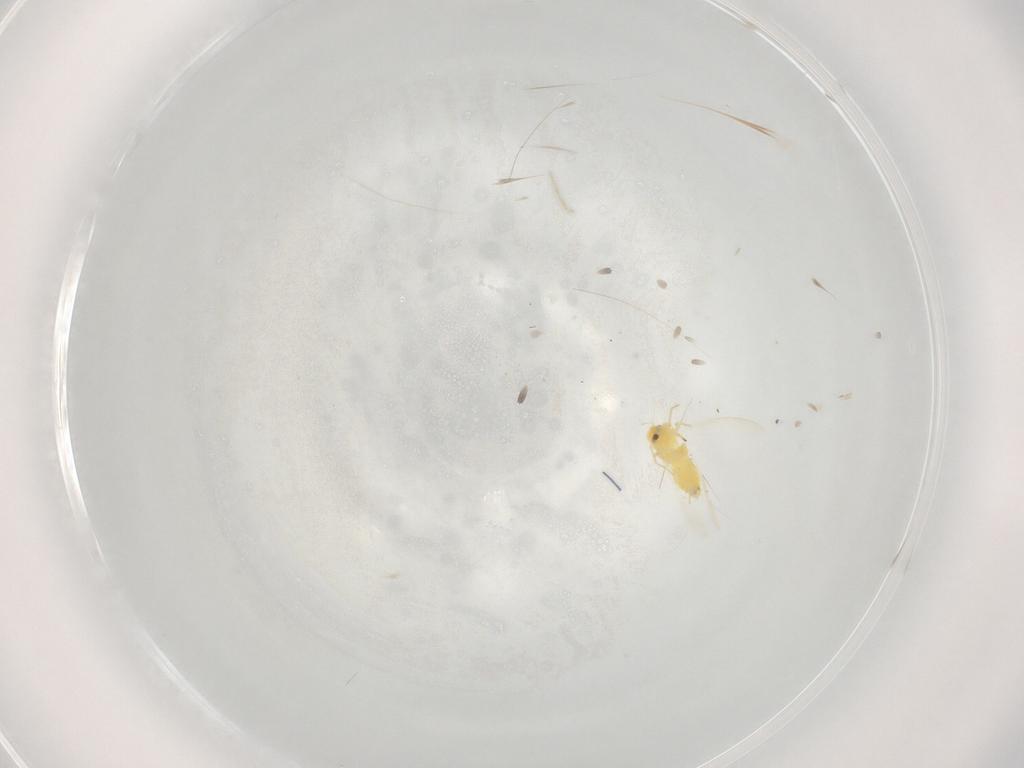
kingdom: Animalia
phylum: Arthropoda
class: Insecta
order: Hemiptera
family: Aleyrodidae
